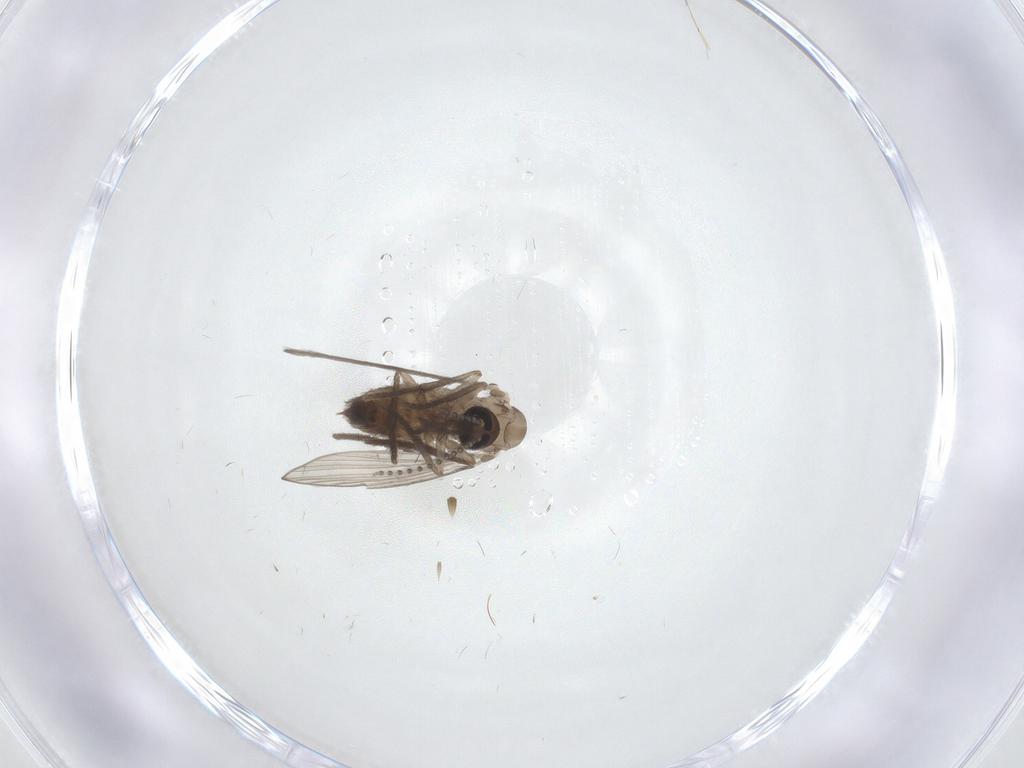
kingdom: Animalia
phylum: Arthropoda
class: Insecta
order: Diptera
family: Psychodidae
